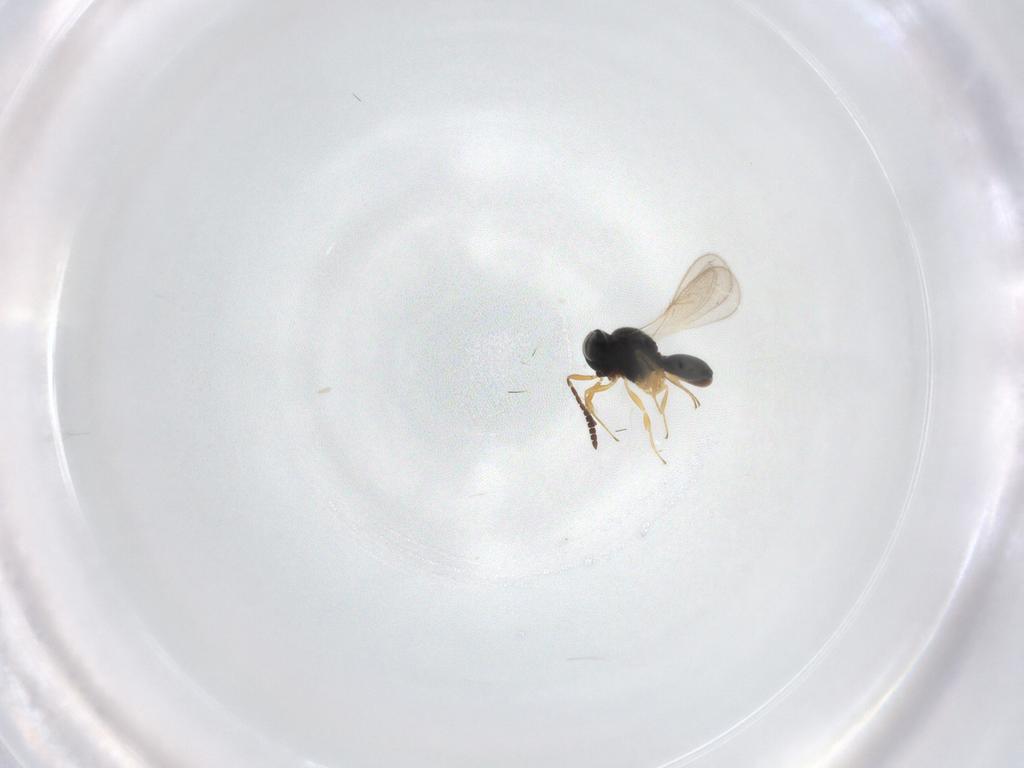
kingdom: Animalia
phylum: Arthropoda
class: Insecta
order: Hymenoptera
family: Scelionidae
